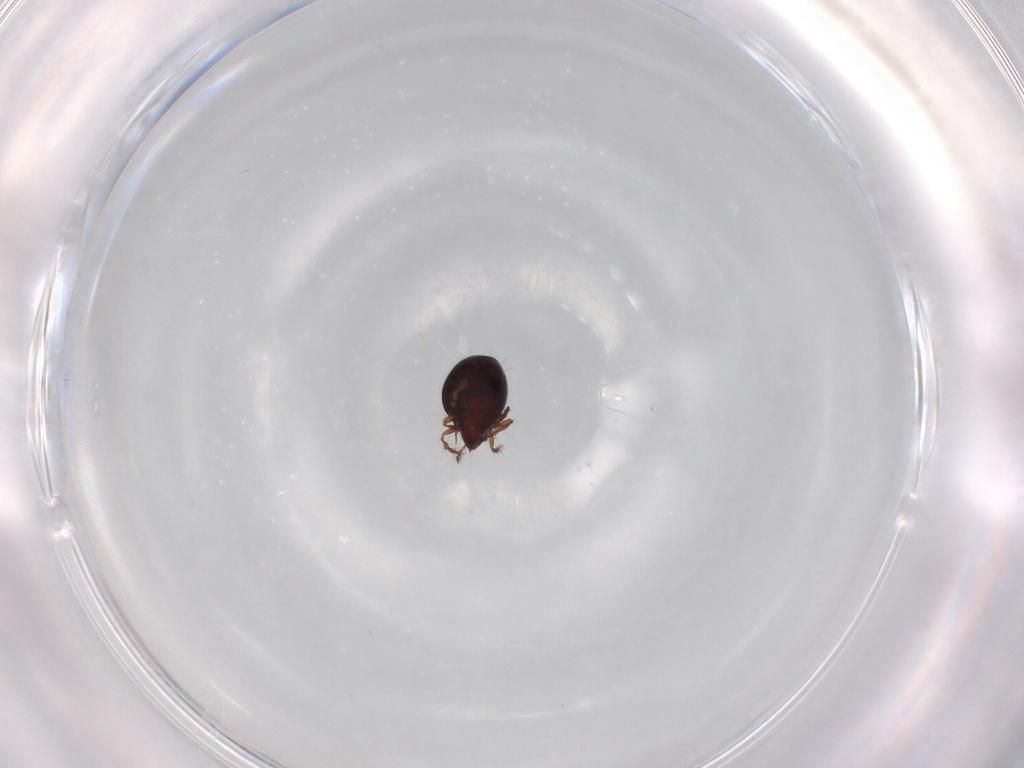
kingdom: Animalia
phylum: Arthropoda
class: Arachnida
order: Sarcoptiformes
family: Ceratoppiidae
